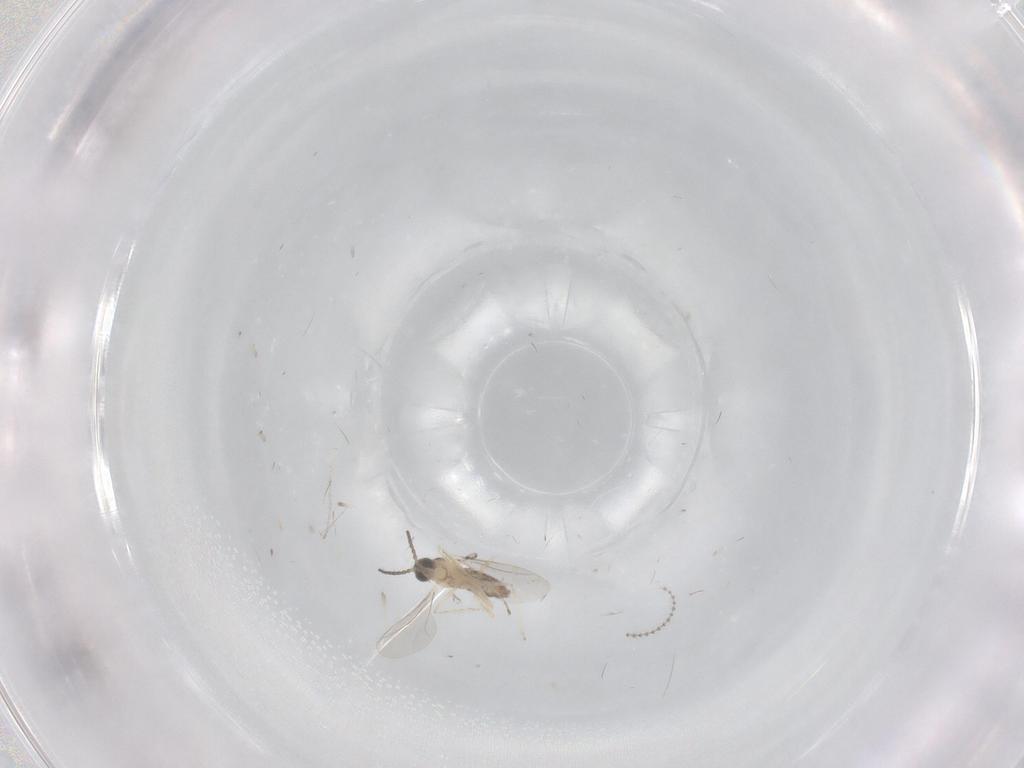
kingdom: Animalia
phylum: Arthropoda
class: Insecta
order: Diptera
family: Cecidomyiidae
